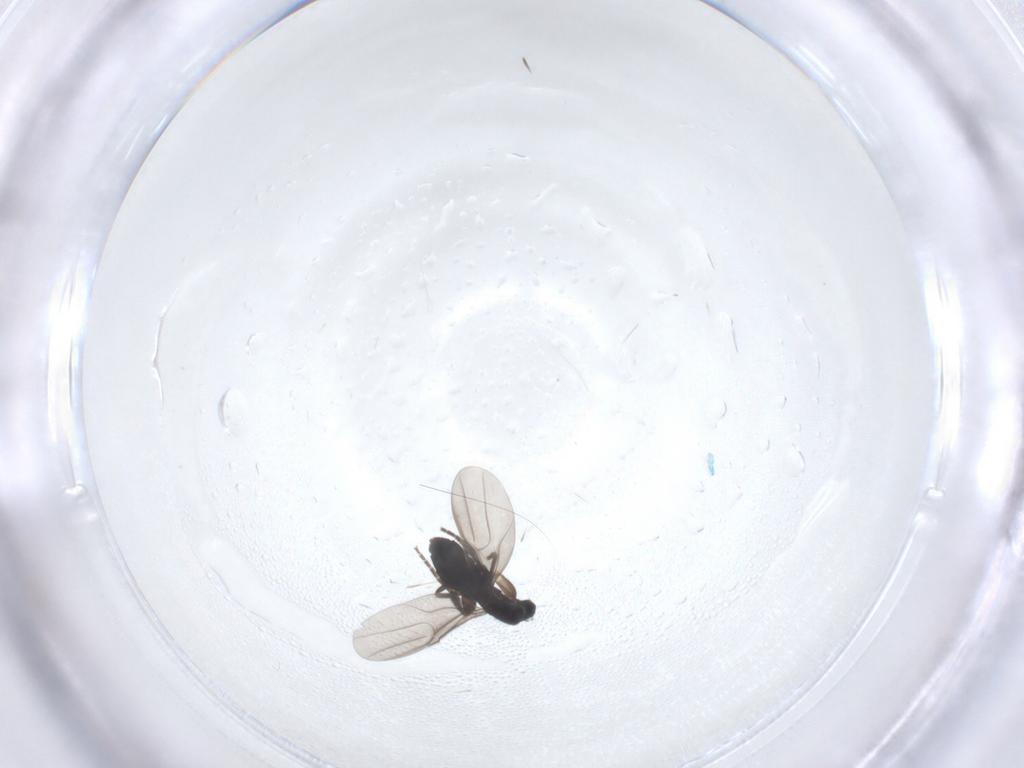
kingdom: Animalia
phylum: Arthropoda
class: Insecta
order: Diptera
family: Phoridae
